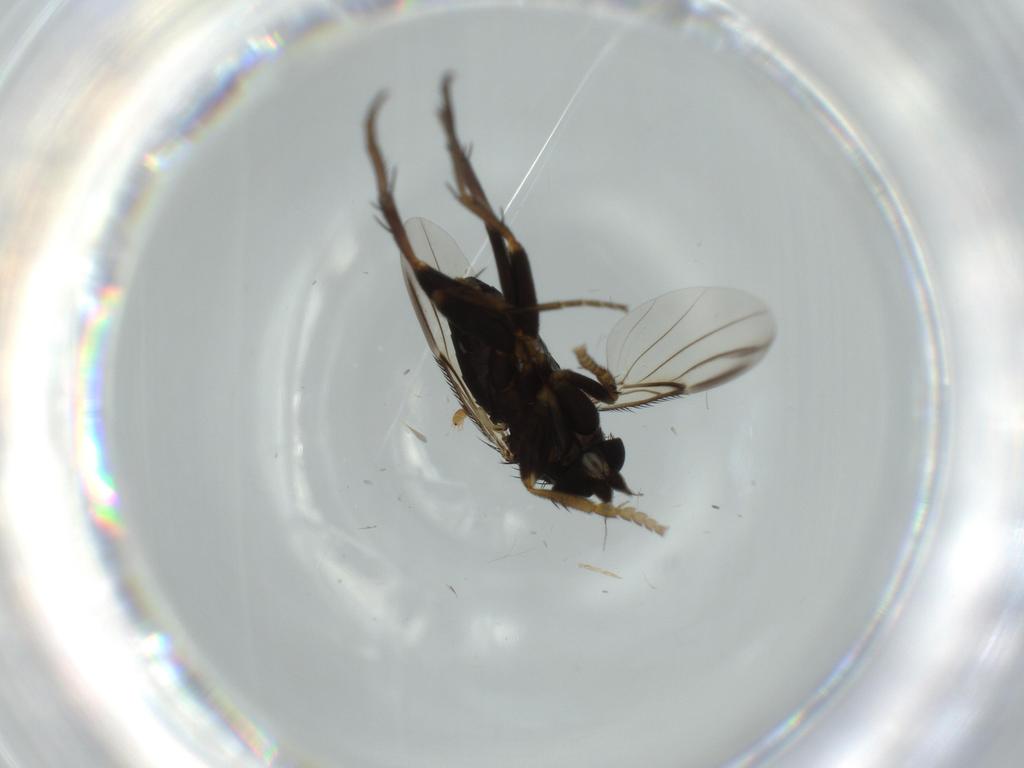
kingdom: Animalia
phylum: Arthropoda
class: Insecta
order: Diptera
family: Phoridae
